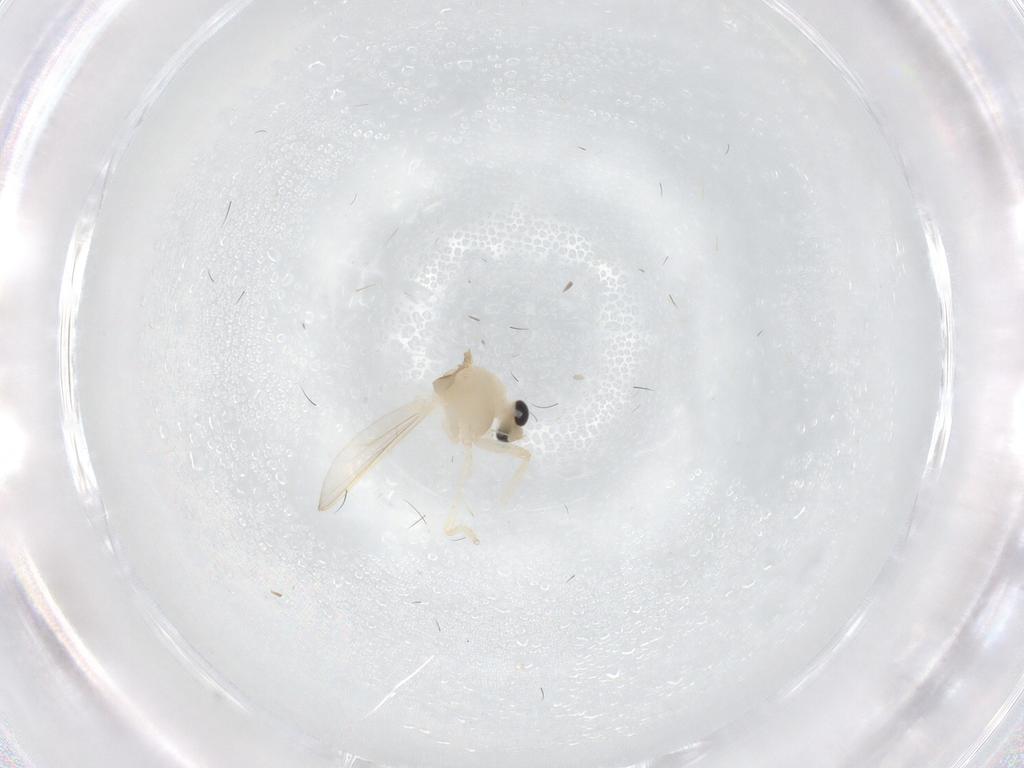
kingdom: Animalia
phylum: Arthropoda
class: Insecta
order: Diptera
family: Chironomidae
